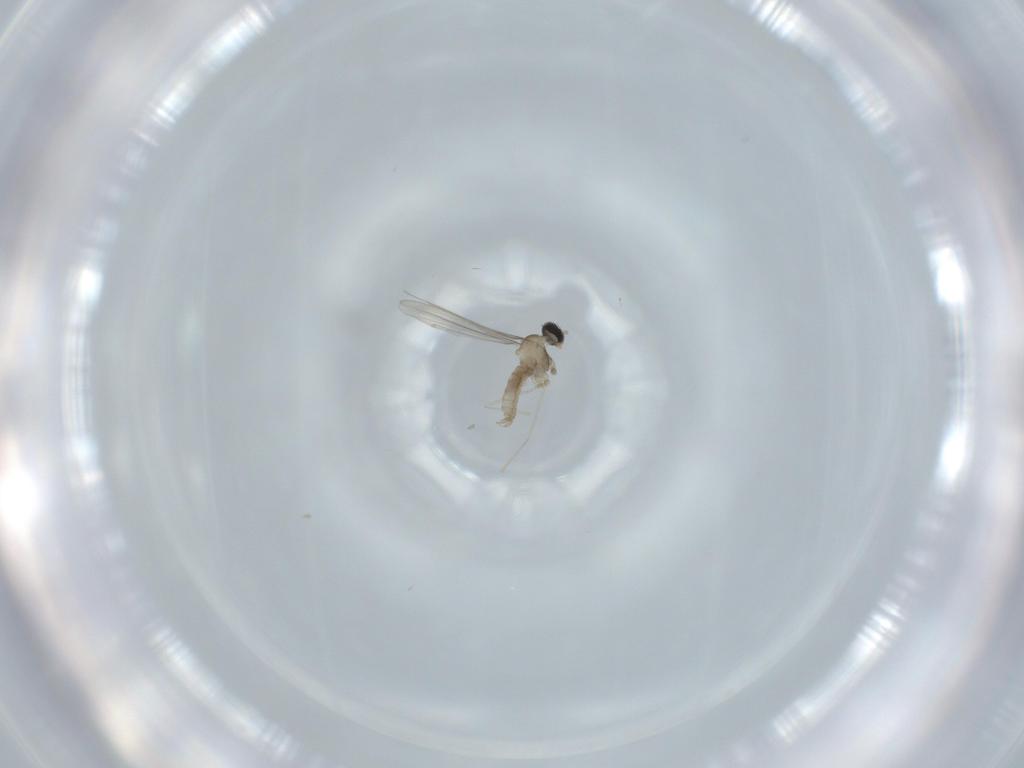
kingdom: Animalia
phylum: Arthropoda
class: Insecta
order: Diptera
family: Cecidomyiidae
